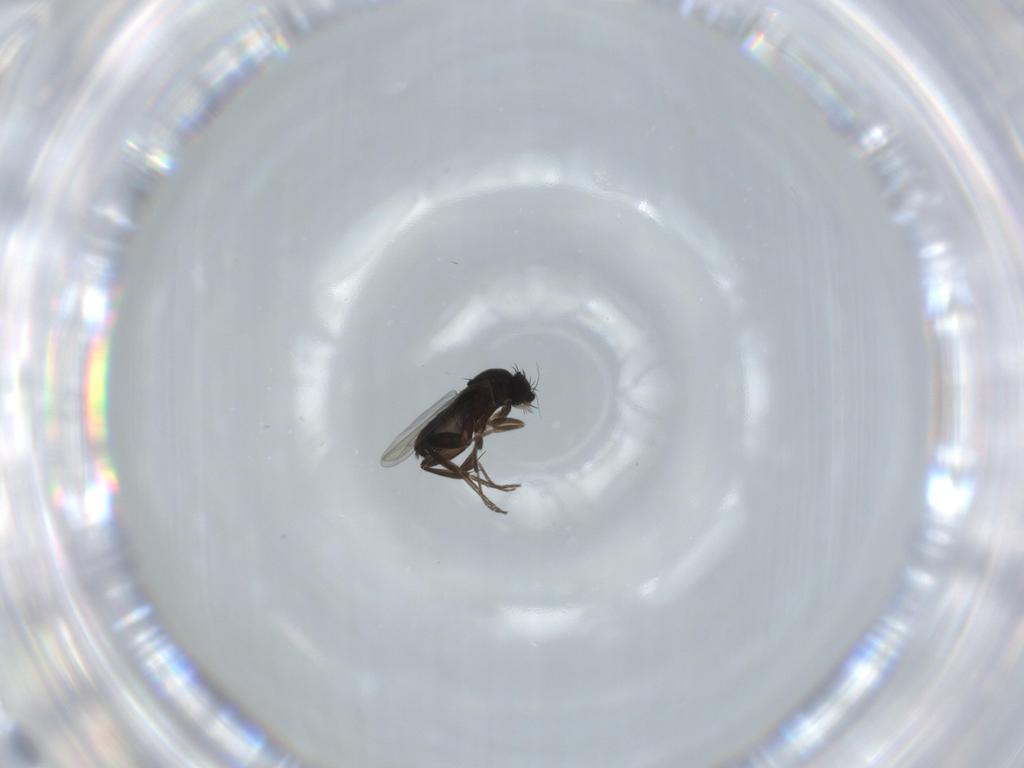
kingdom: Animalia
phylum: Arthropoda
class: Insecta
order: Diptera
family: Phoridae
